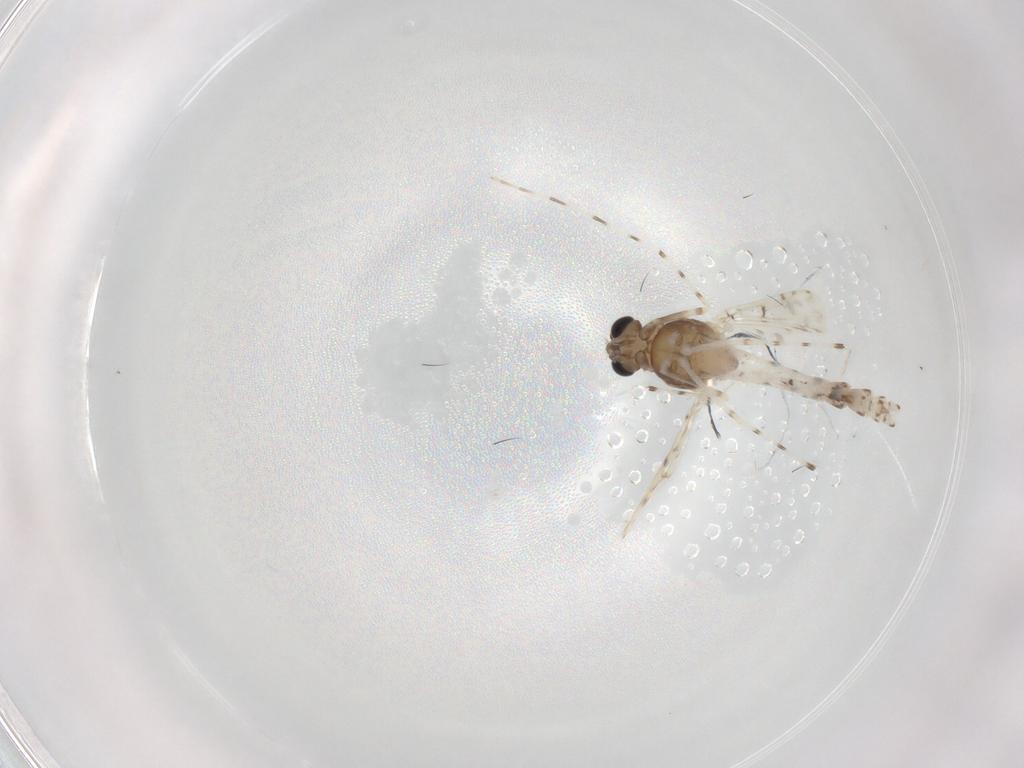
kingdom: Animalia
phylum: Arthropoda
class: Insecta
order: Diptera
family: Chironomidae
